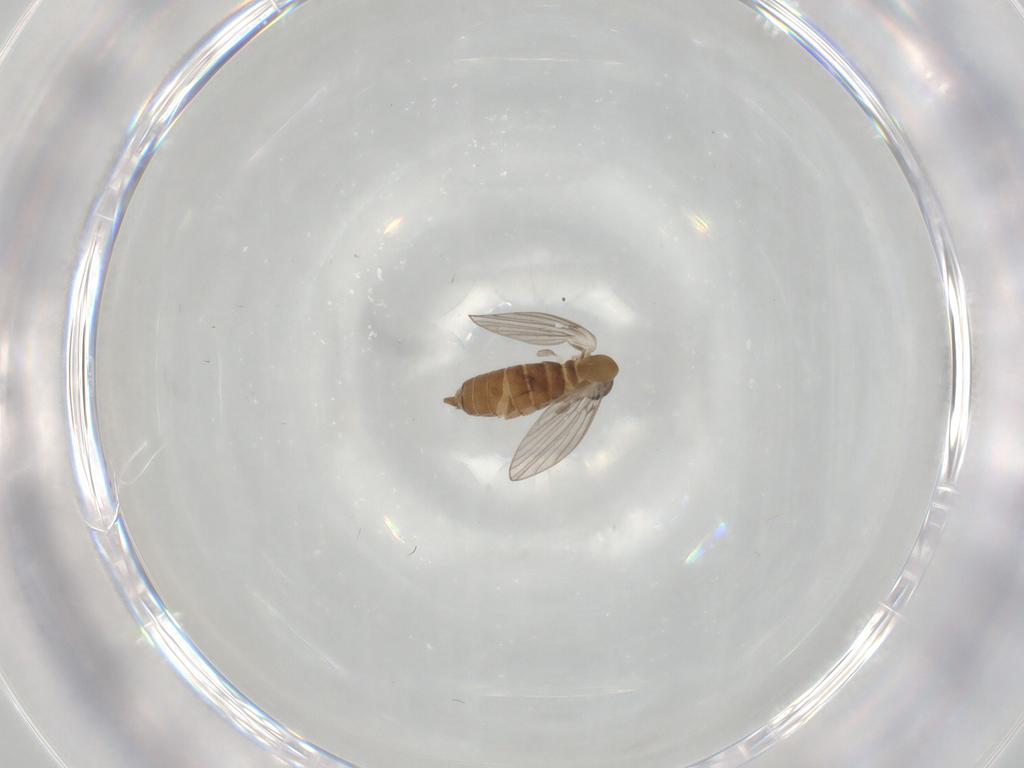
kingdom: Animalia
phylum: Arthropoda
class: Insecta
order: Diptera
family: Psychodidae
